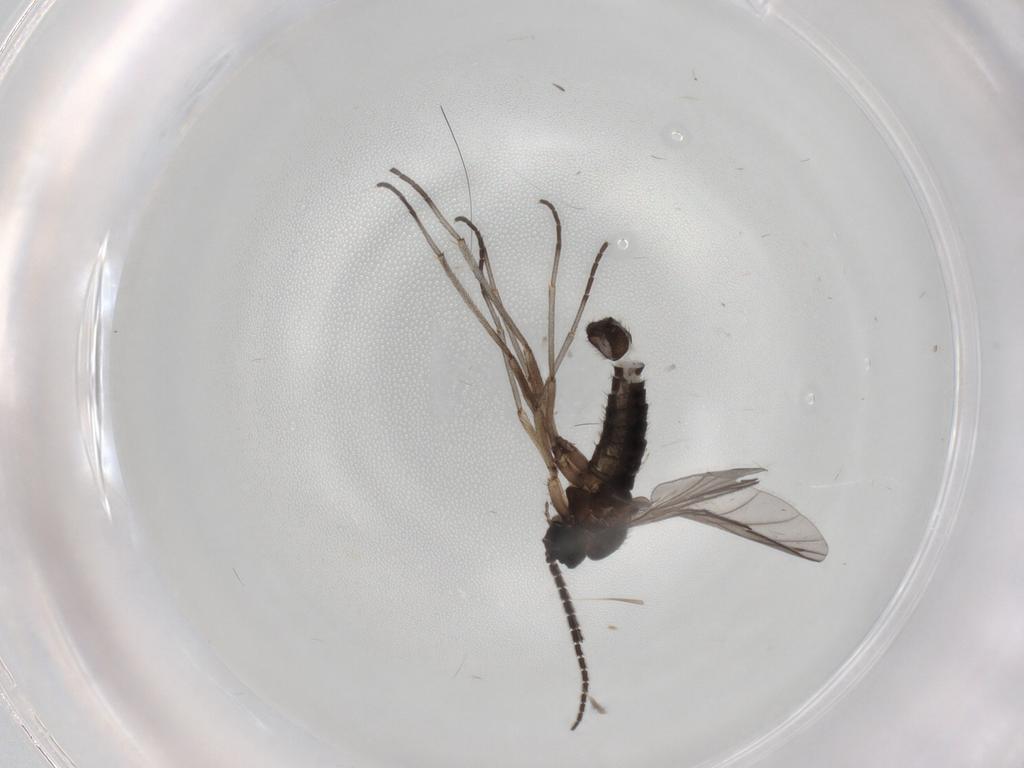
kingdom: Animalia
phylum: Arthropoda
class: Insecta
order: Diptera
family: Sciaridae
